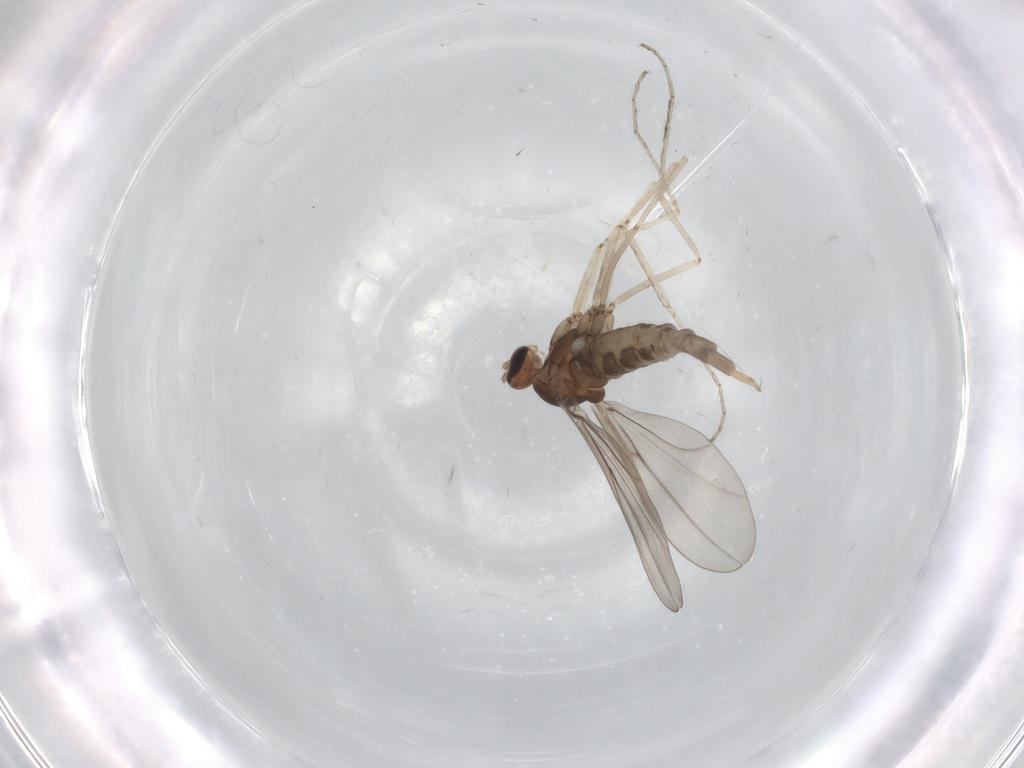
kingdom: Animalia
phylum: Arthropoda
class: Insecta
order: Diptera
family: Cecidomyiidae
